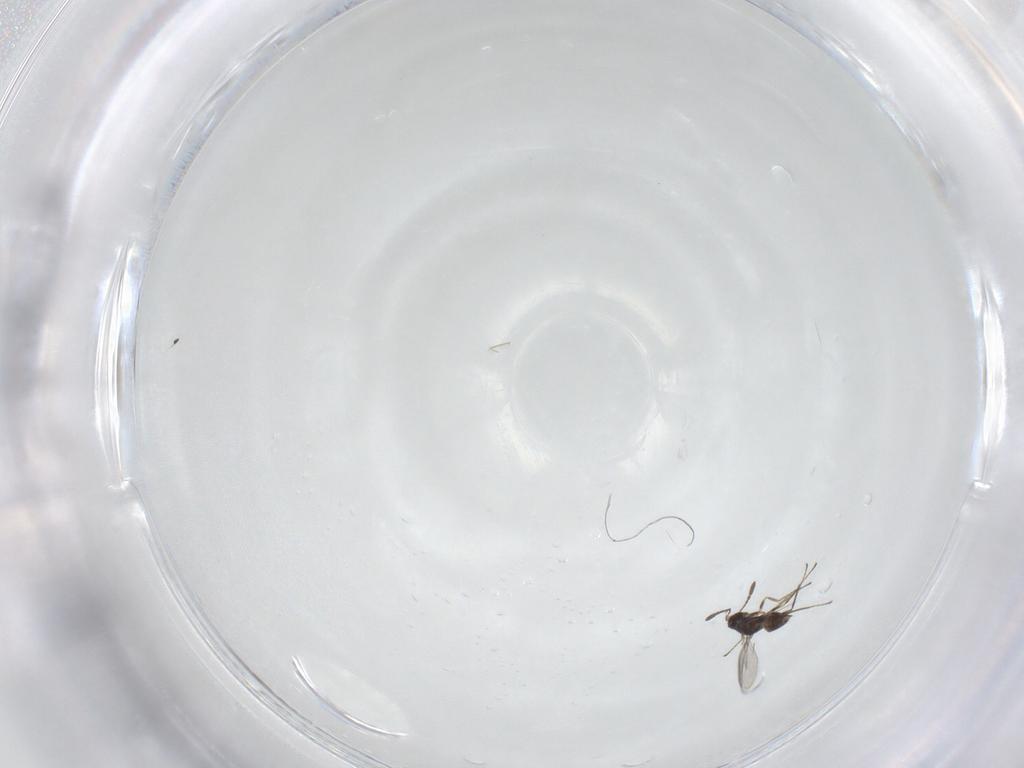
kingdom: Animalia
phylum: Arthropoda
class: Insecta
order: Hymenoptera
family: Mymaridae
